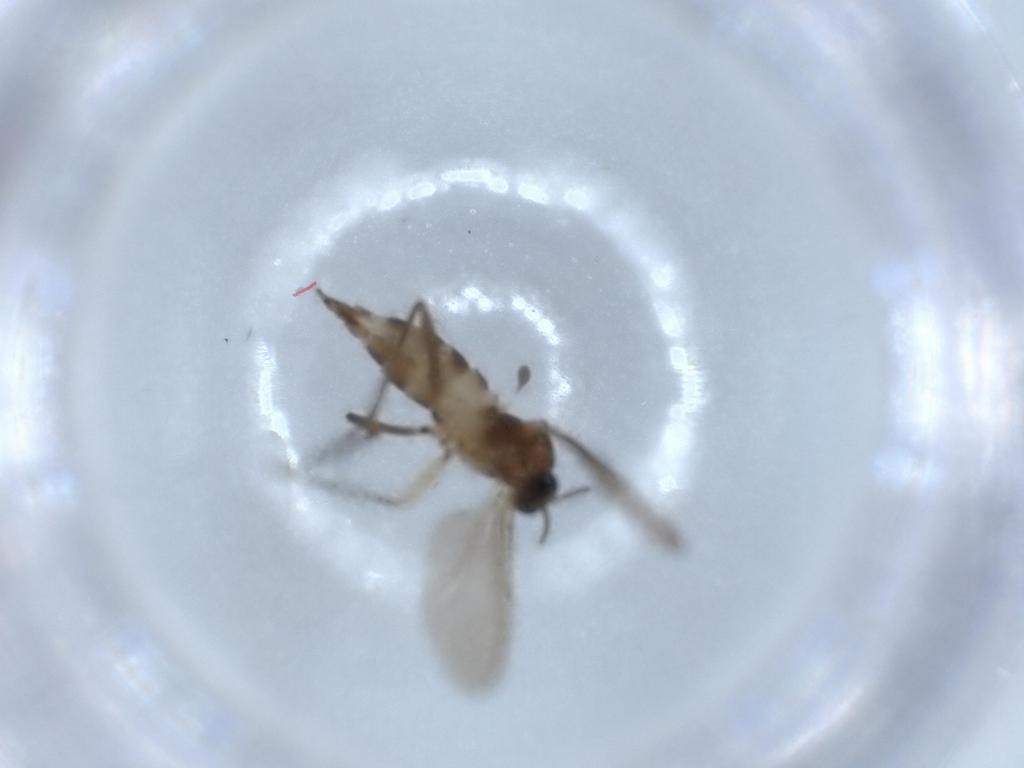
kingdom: Animalia
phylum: Arthropoda
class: Insecta
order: Diptera
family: Sciaridae
